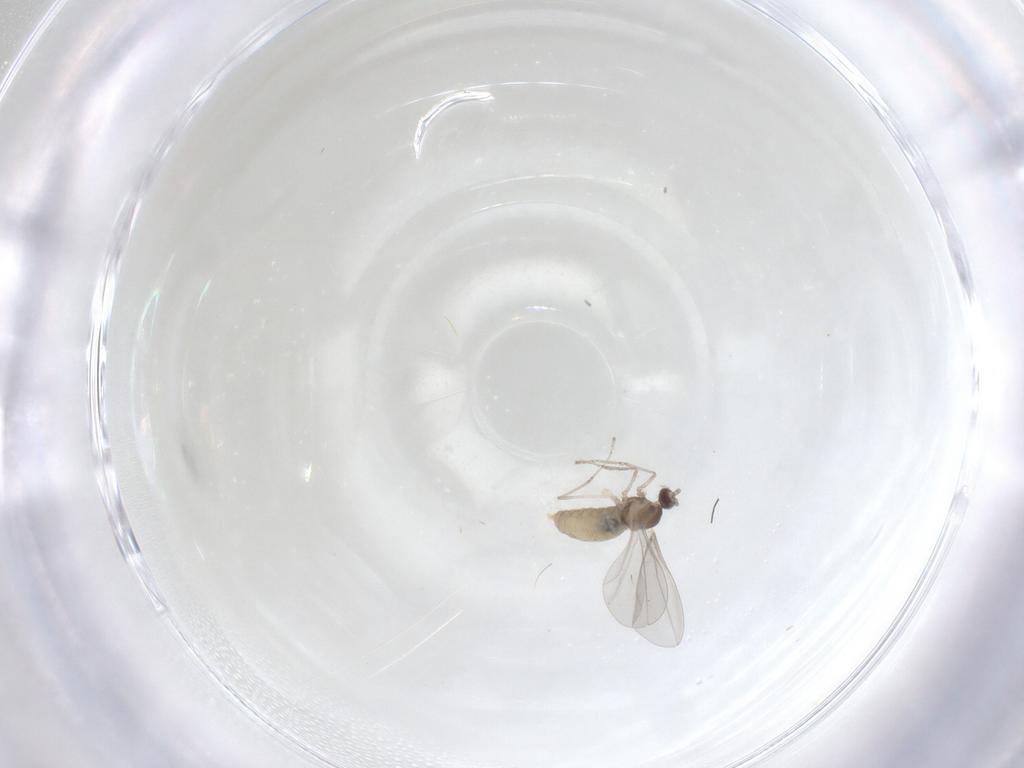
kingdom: Animalia
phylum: Arthropoda
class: Insecta
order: Diptera
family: Cecidomyiidae
